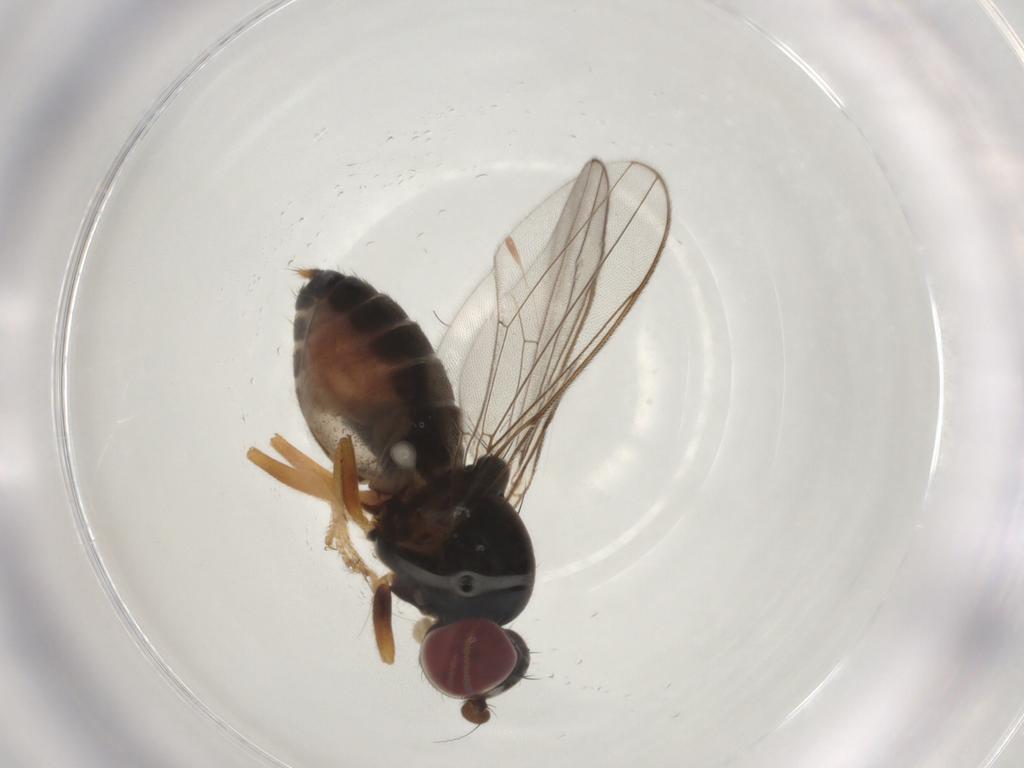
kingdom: Animalia
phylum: Arthropoda
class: Insecta
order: Diptera
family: Aulacigastridae
